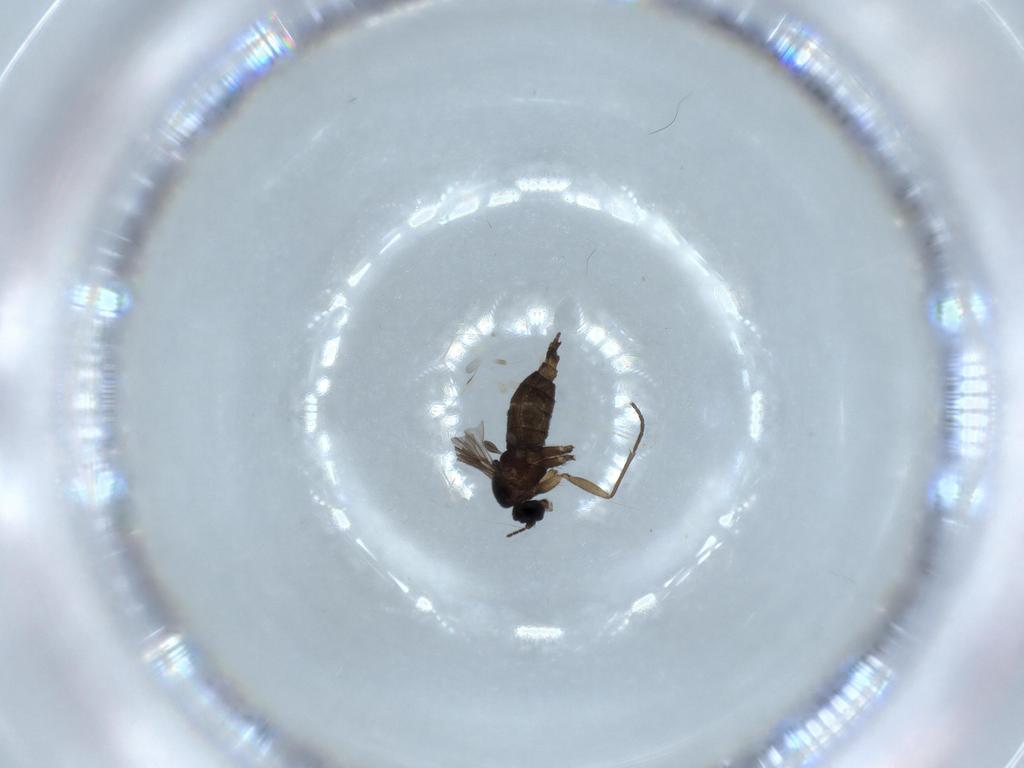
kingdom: Animalia
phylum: Arthropoda
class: Insecta
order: Diptera
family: Sciaridae
